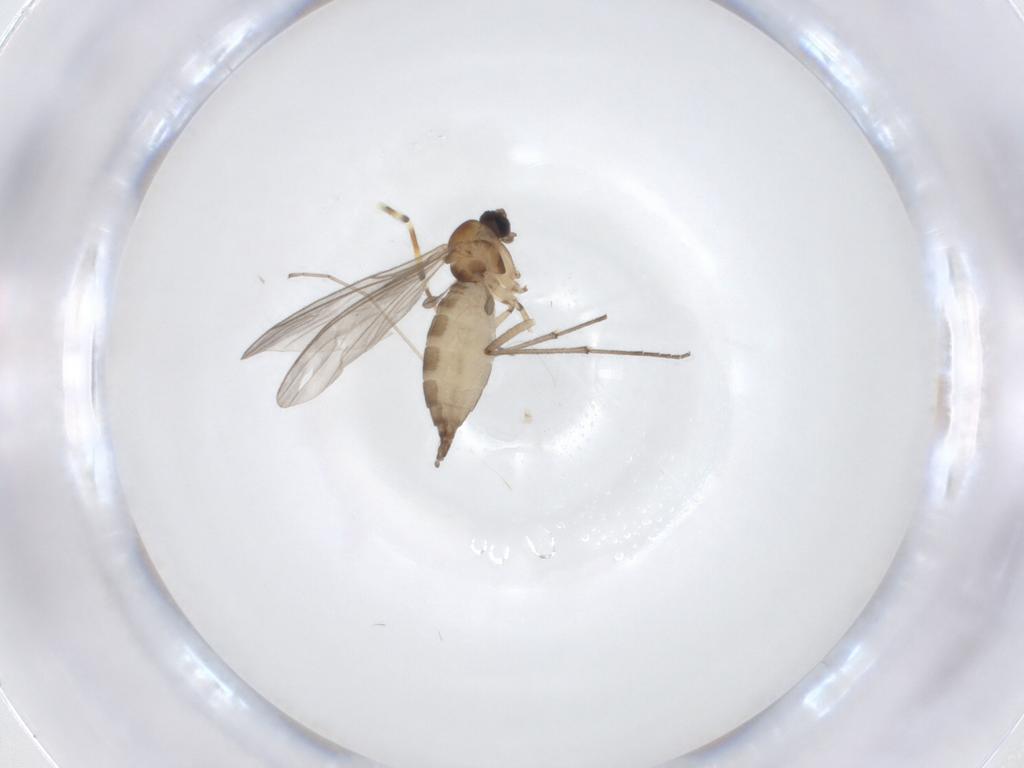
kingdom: Animalia
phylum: Arthropoda
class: Insecta
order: Diptera
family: Sciaridae
